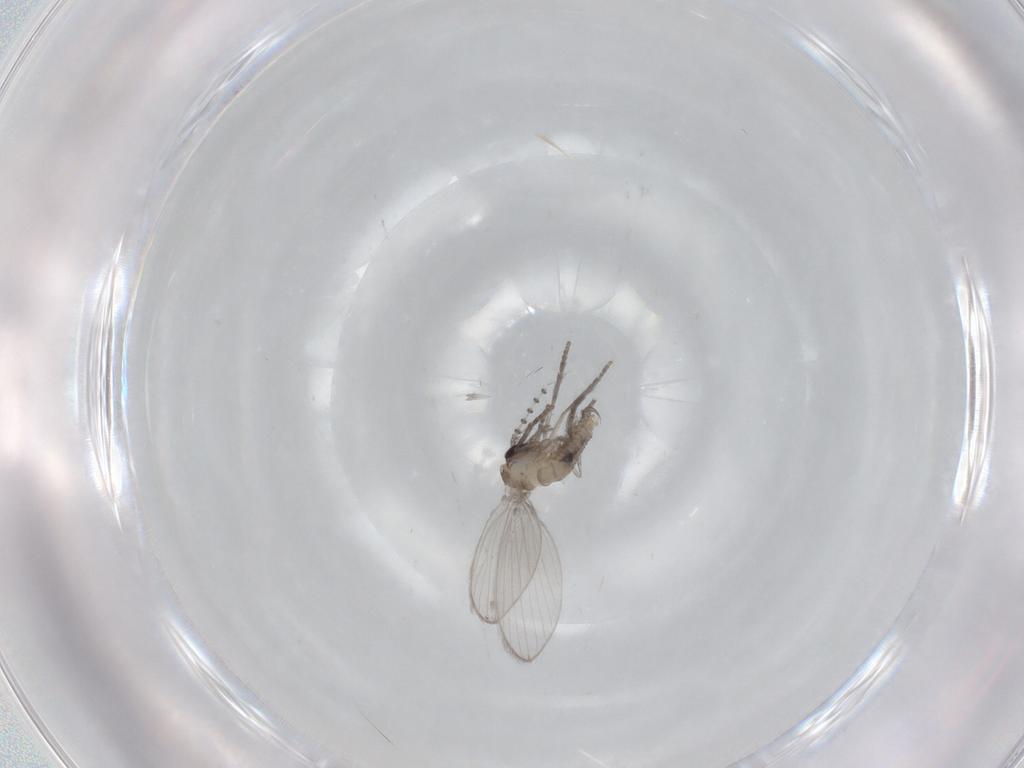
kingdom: Animalia
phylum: Arthropoda
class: Insecta
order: Diptera
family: Psychodidae
